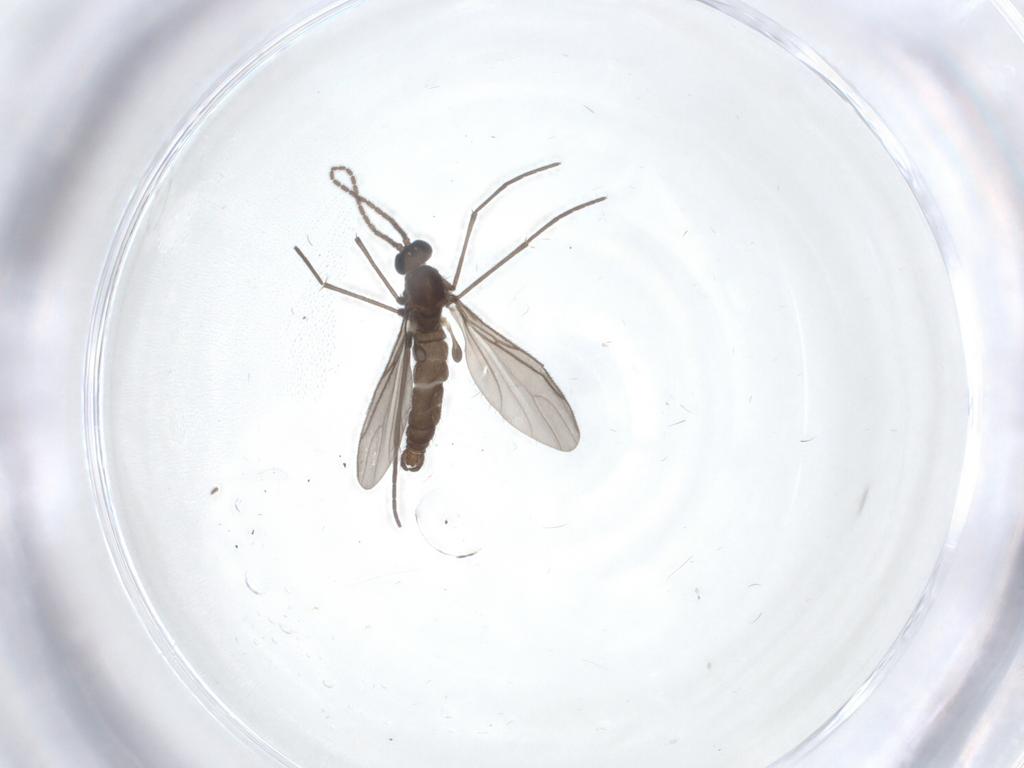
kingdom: Animalia
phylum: Arthropoda
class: Insecta
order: Diptera
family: Sciaridae
